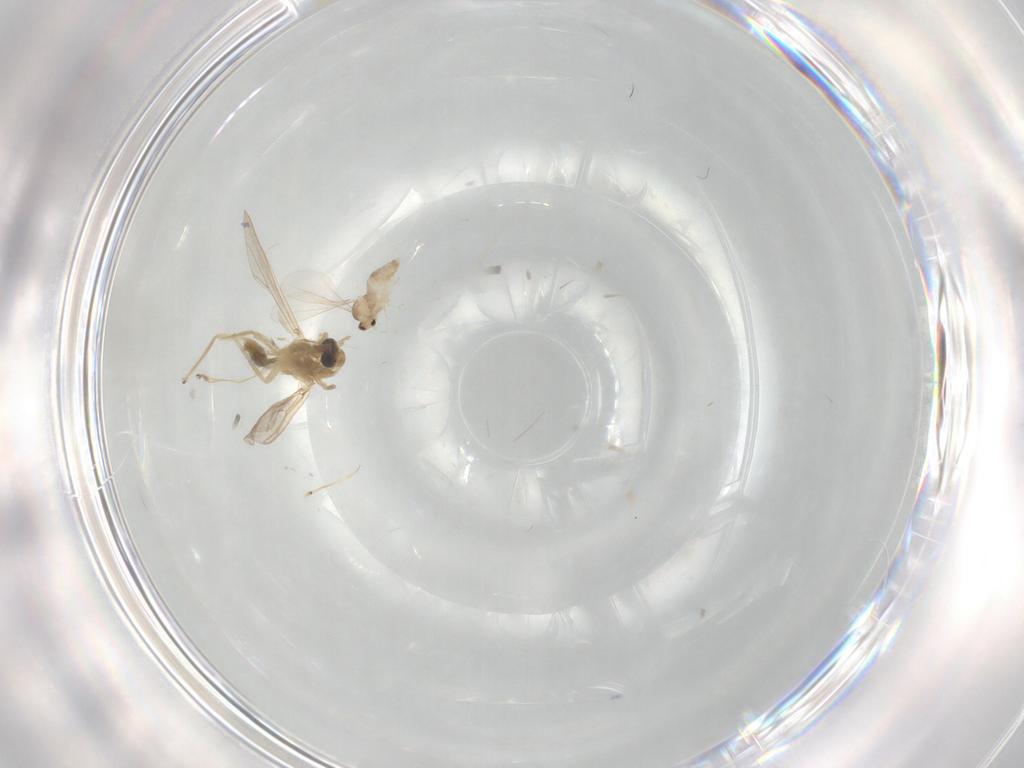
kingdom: Animalia
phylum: Arthropoda
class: Insecta
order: Diptera
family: Cecidomyiidae
